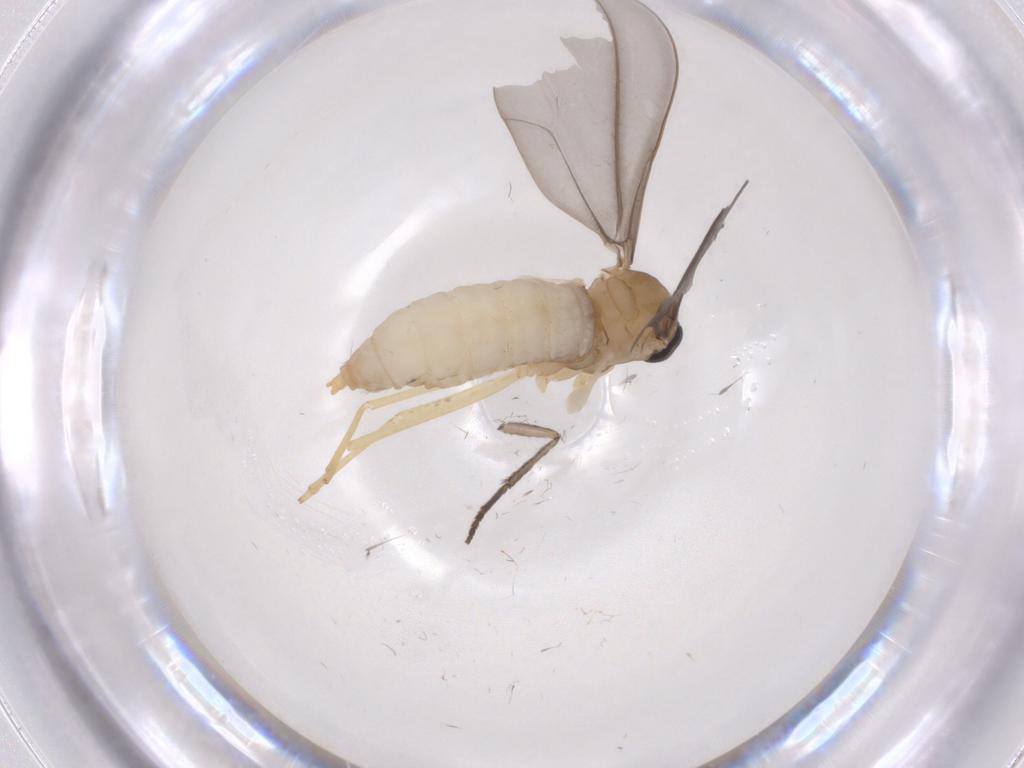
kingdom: Animalia
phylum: Arthropoda
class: Insecta
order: Diptera
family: Cecidomyiidae
